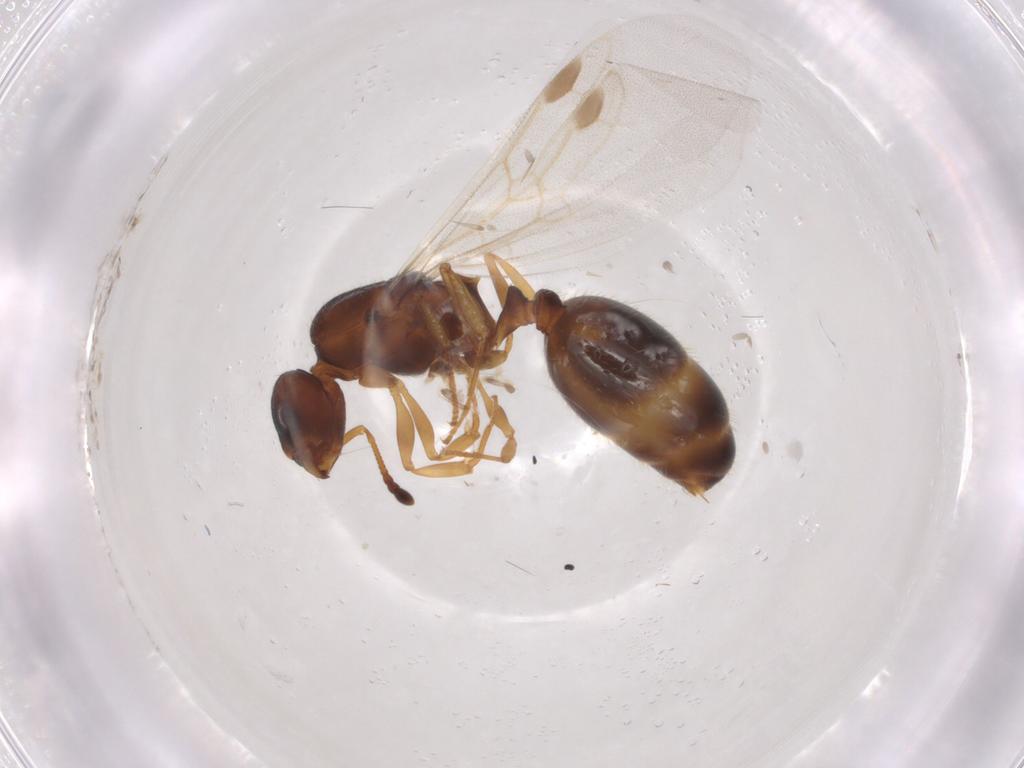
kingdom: Animalia
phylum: Arthropoda
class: Insecta
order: Hymenoptera
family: Formicidae
